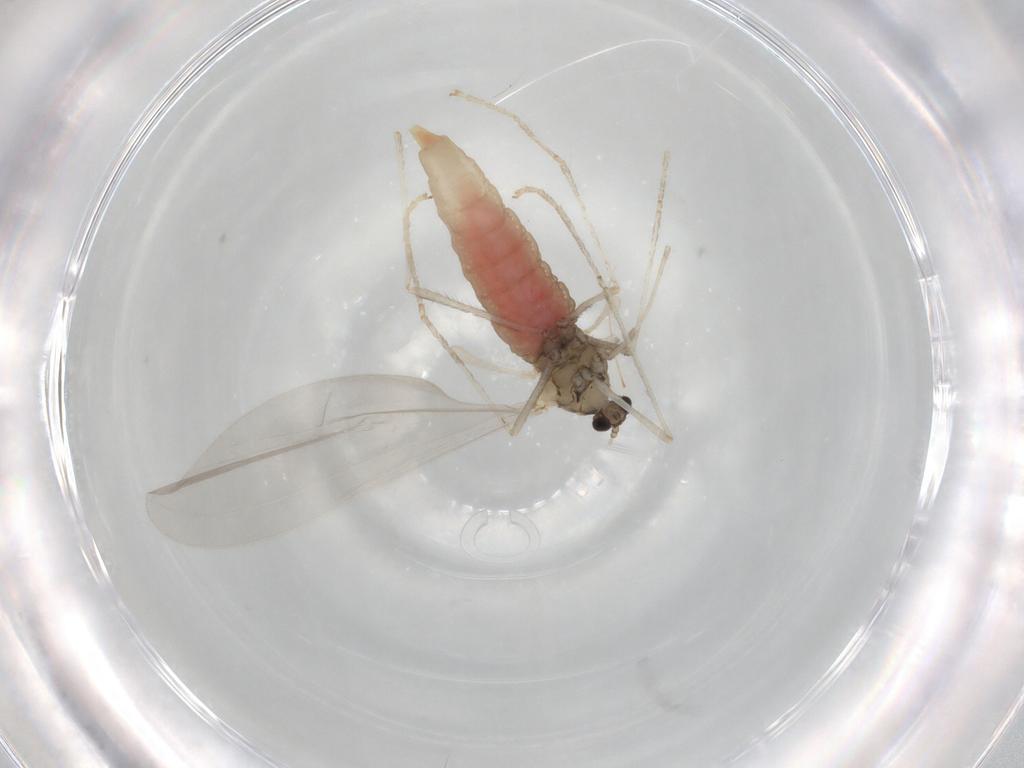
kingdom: Animalia
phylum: Arthropoda
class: Insecta
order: Diptera
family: Cecidomyiidae
